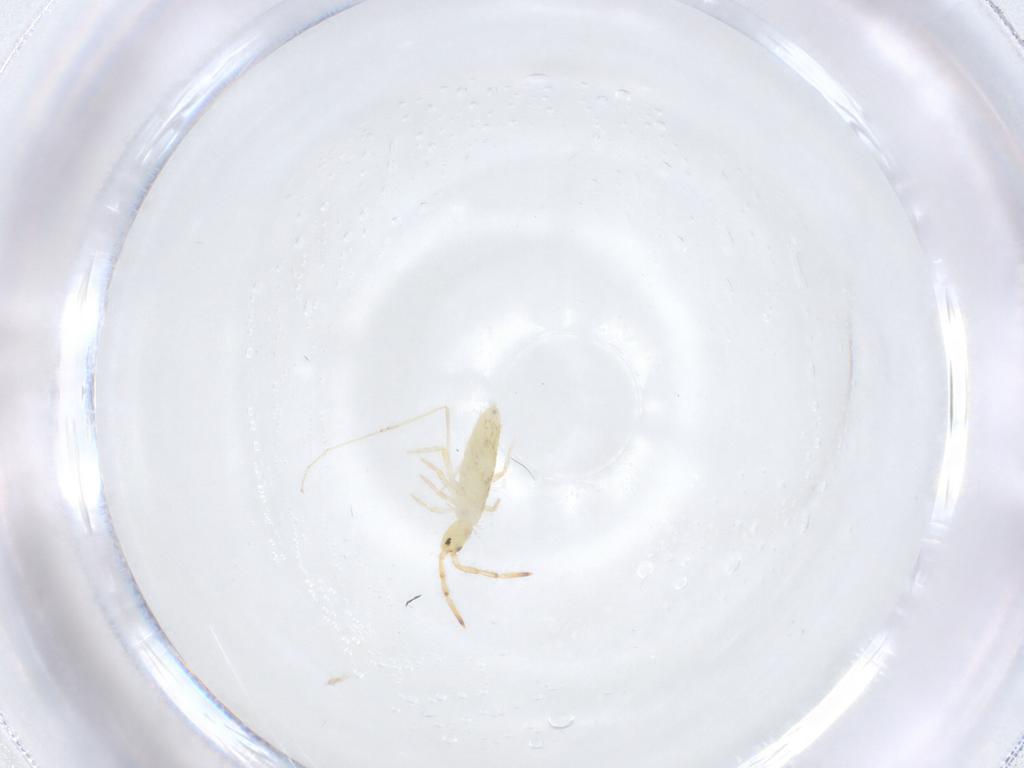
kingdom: Animalia
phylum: Arthropoda
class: Collembola
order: Entomobryomorpha
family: Entomobryidae
